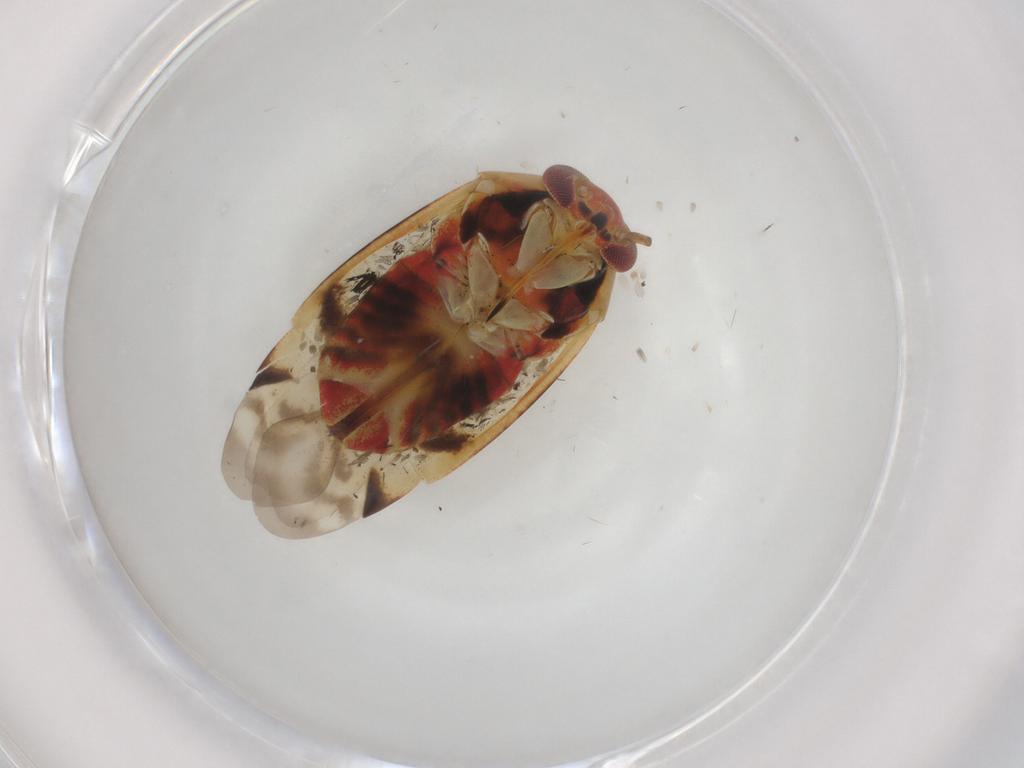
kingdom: Animalia
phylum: Arthropoda
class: Insecta
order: Hemiptera
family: Miridae
